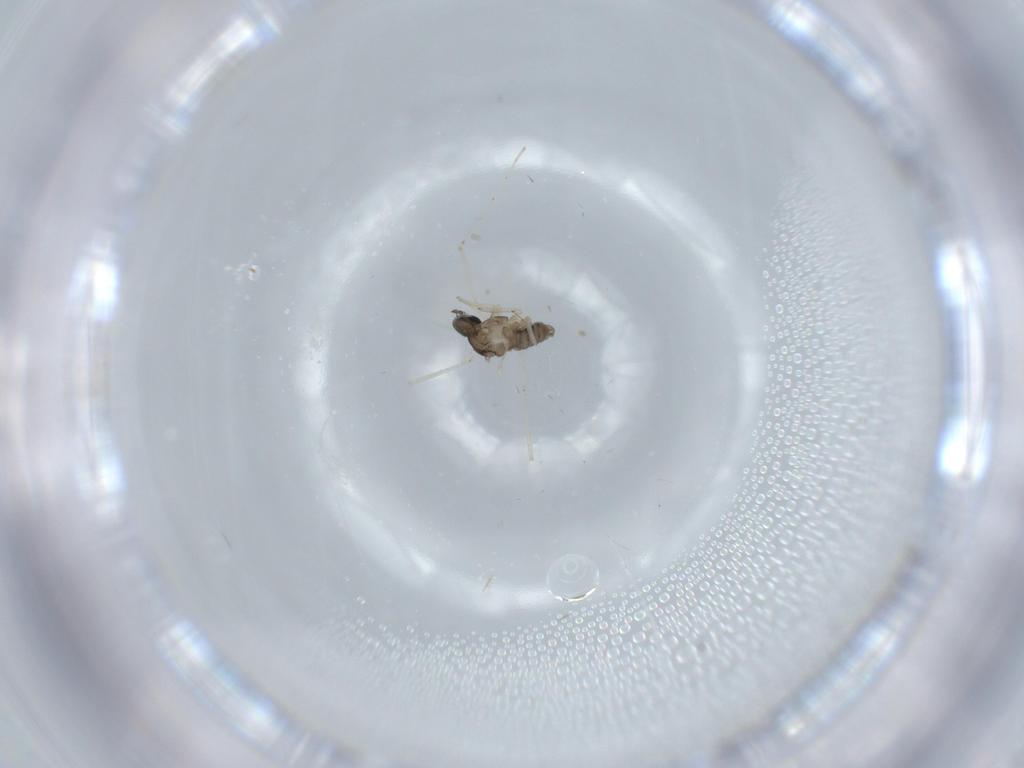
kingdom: Animalia
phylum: Arthropoda
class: Insecta
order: Diptera
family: Cecidomyiidae
